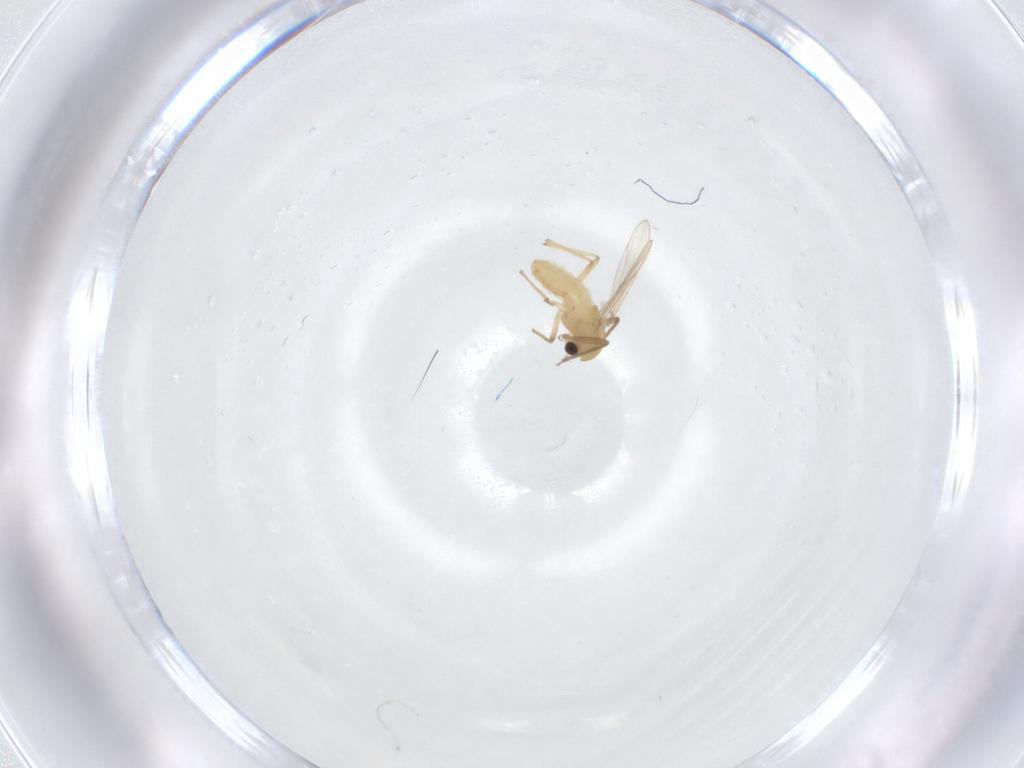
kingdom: Animalia
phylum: Arthropoda
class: Insecta
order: Diptera
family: Chironomidae
